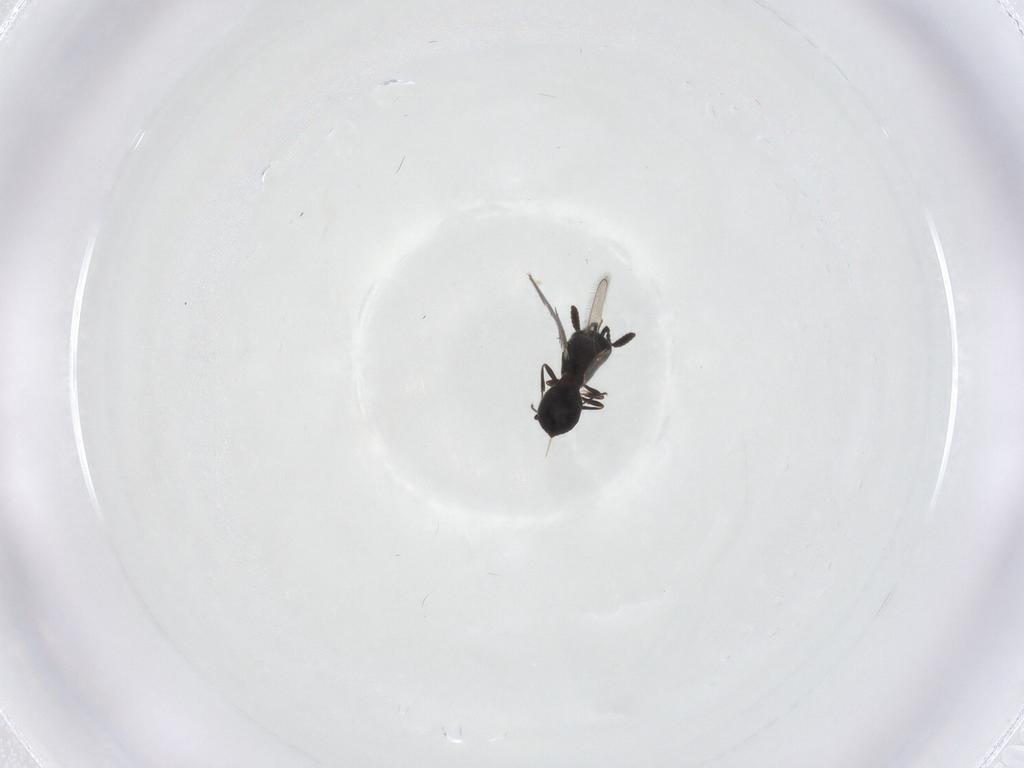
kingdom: Animalia
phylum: Arthropoda
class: Insecta
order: Hymenoptera
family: Scelionidae
